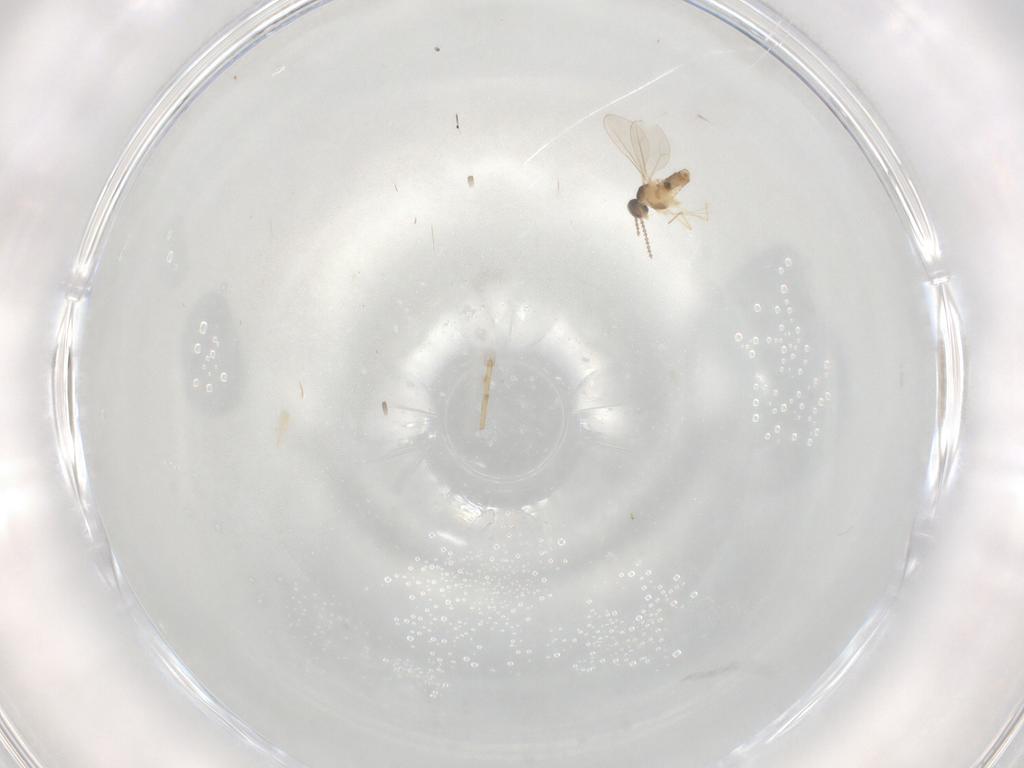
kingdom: Animalia
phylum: Arthropoda
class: Insecta
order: Diptera
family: Cecidomyiidae
